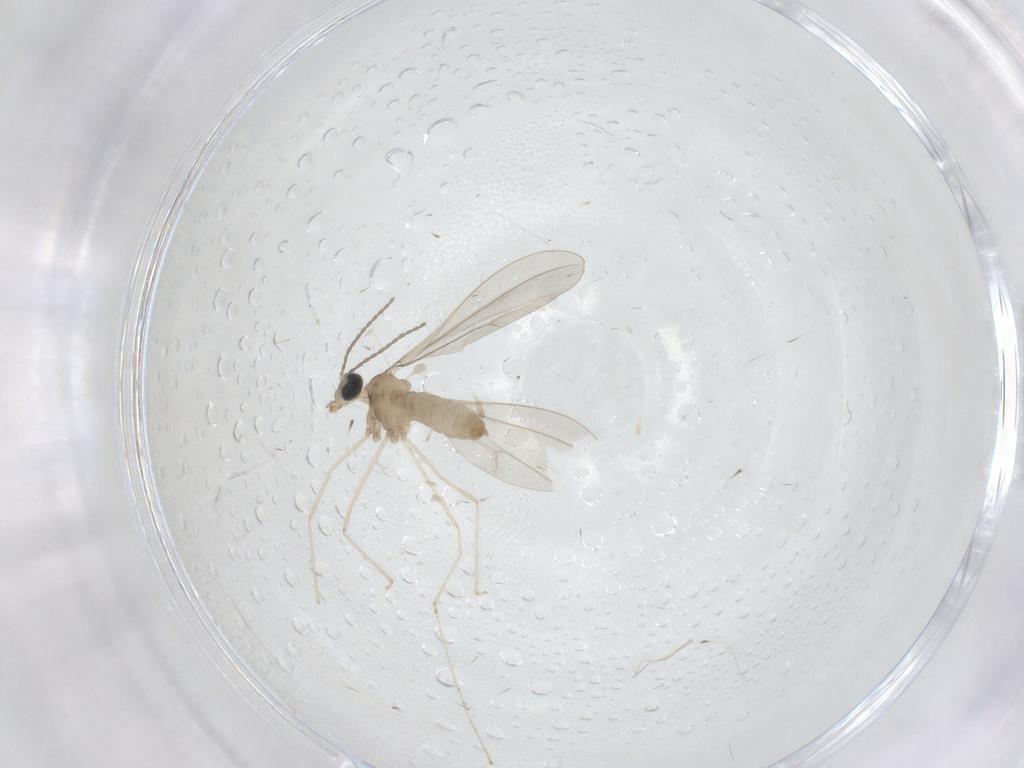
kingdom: Animalia
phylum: Arthropoda
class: Insecta
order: Diptera
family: Cecidomyiidae
